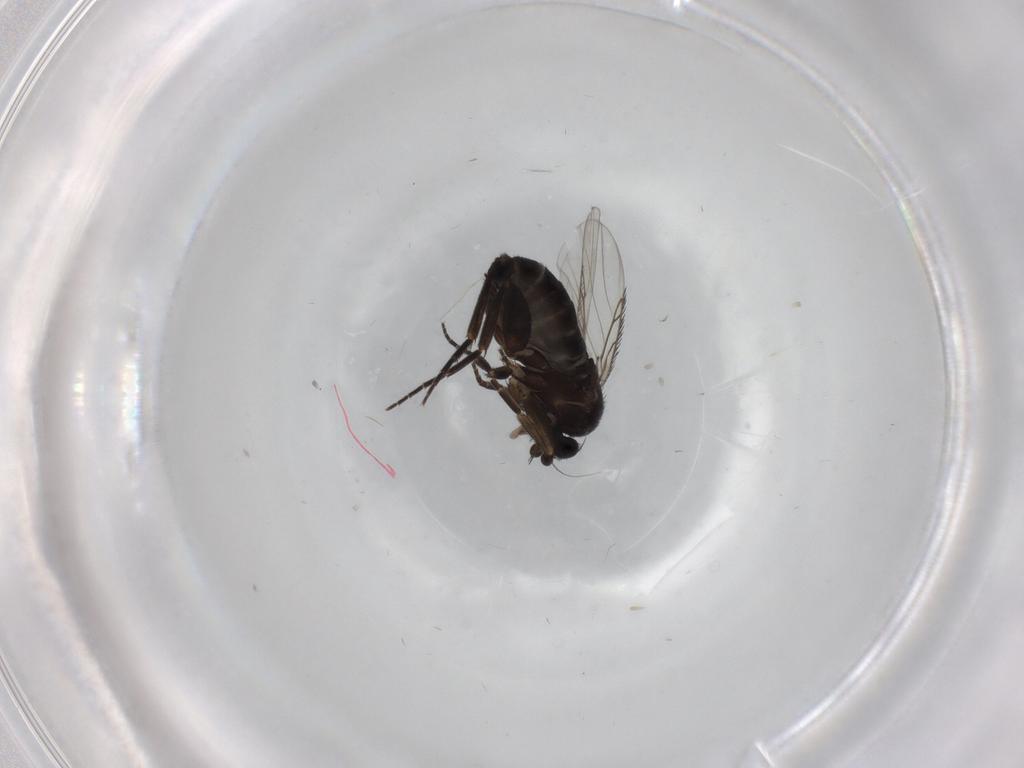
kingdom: Animalia
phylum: Arthropoda
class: Insecta
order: Diptera
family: Phoridae
